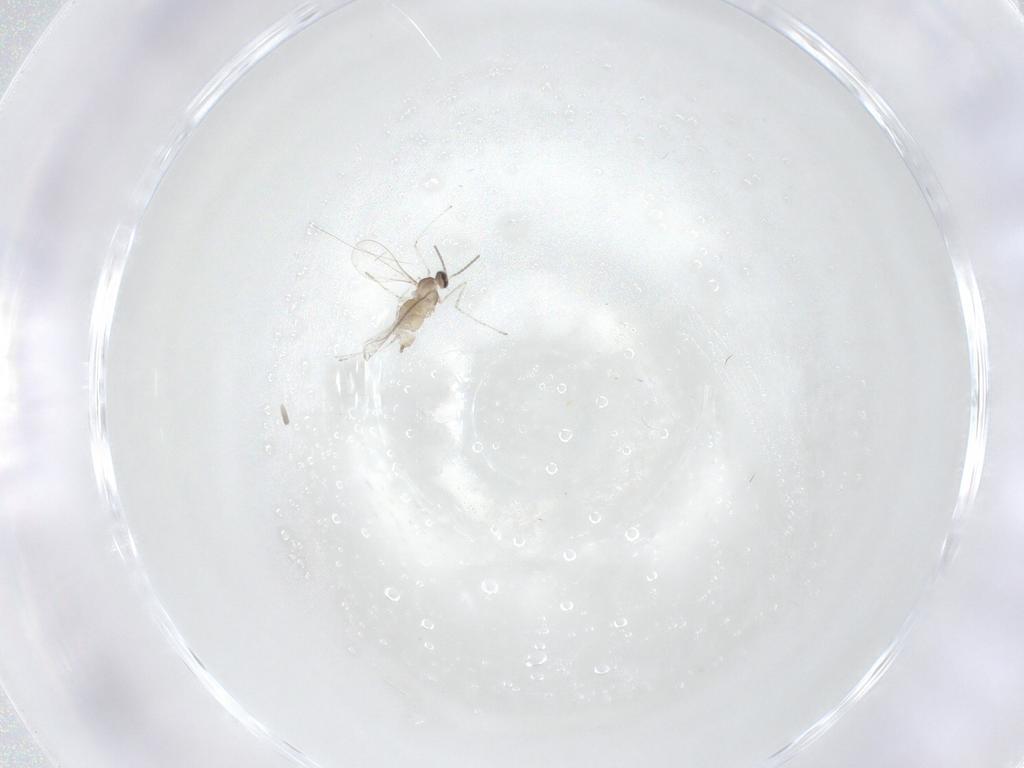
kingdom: Animalia
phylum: Arthropoda
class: Insecta
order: Diptera
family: Cecidomyiidae
